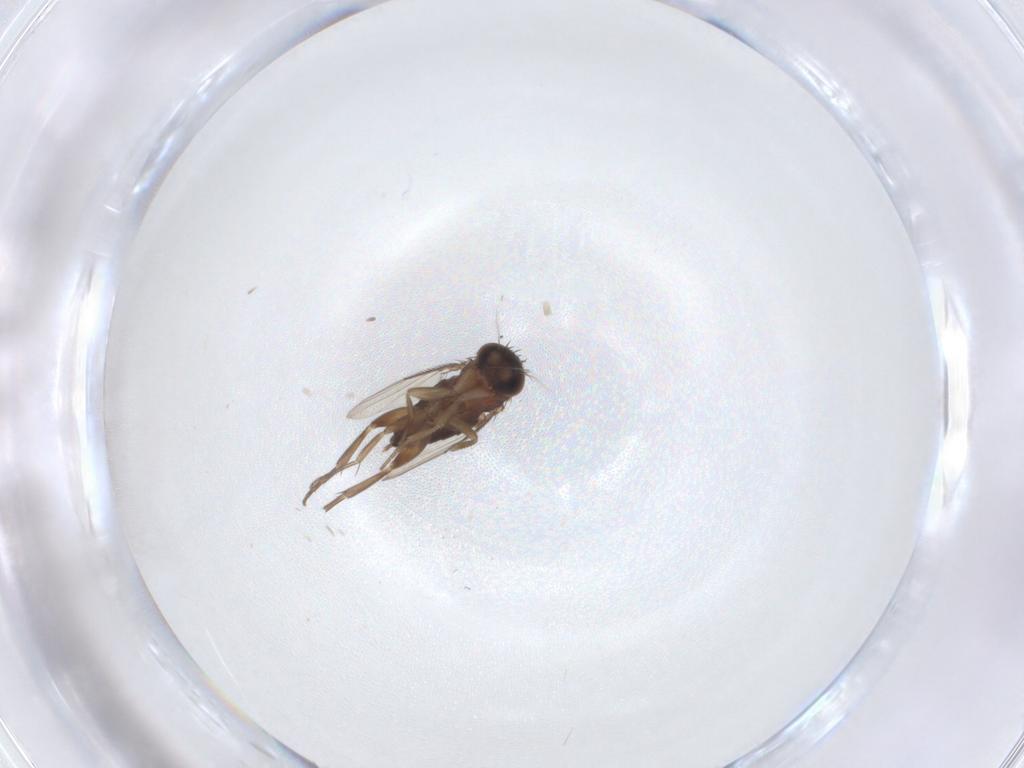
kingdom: Animalia
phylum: Arthropoda
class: Insecta
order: Diptera
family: Phoridae
